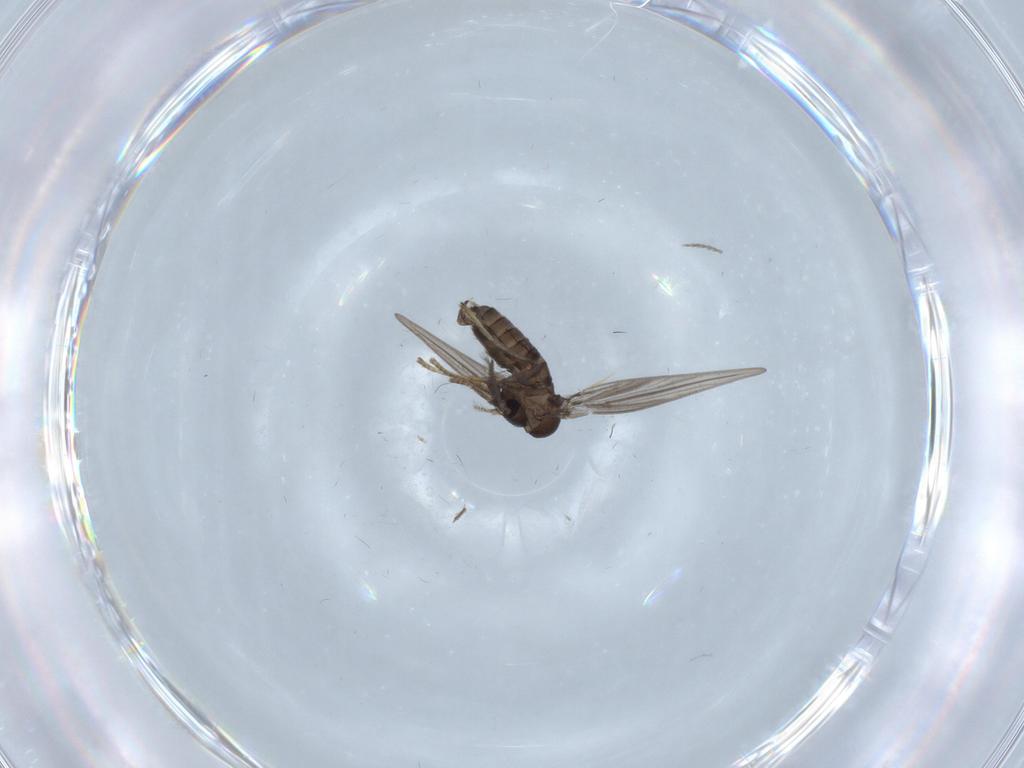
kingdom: Animalia
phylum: Arthropoda
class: Insecta
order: Diptera
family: Psychodidae
